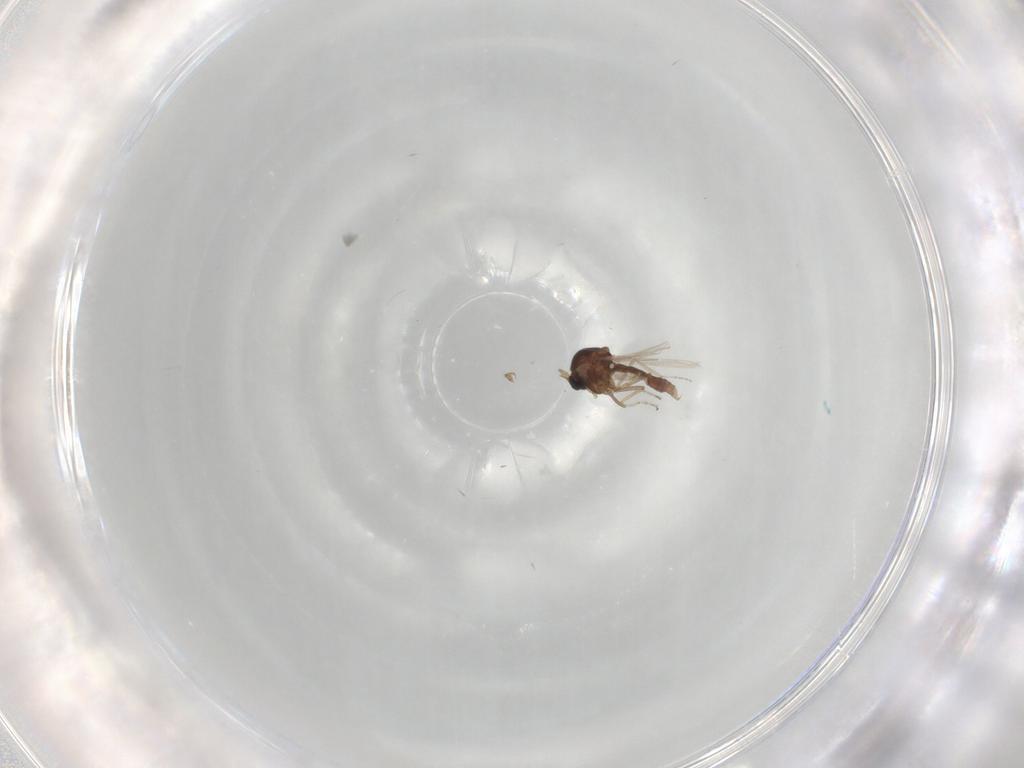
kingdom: Animalia
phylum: Arthropoda
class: Insecta
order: Diptera
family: Ceratopogonidae
